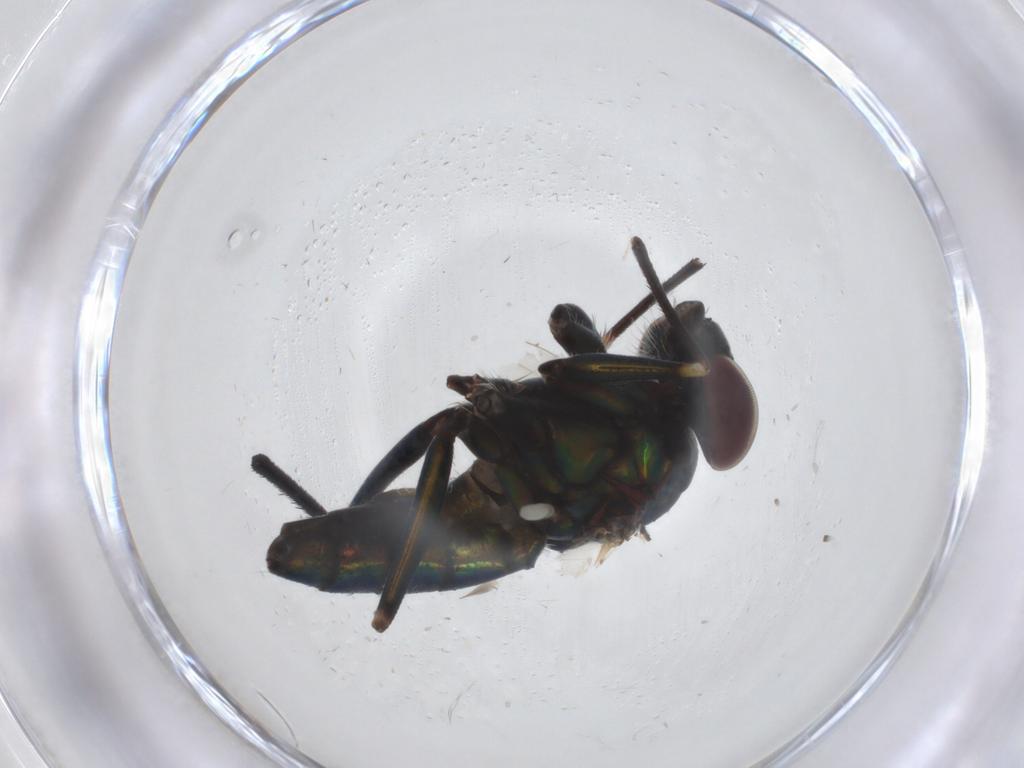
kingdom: Animalia
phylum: Arthropoda
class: Insecta
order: Diptera
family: Dolichopodidae
